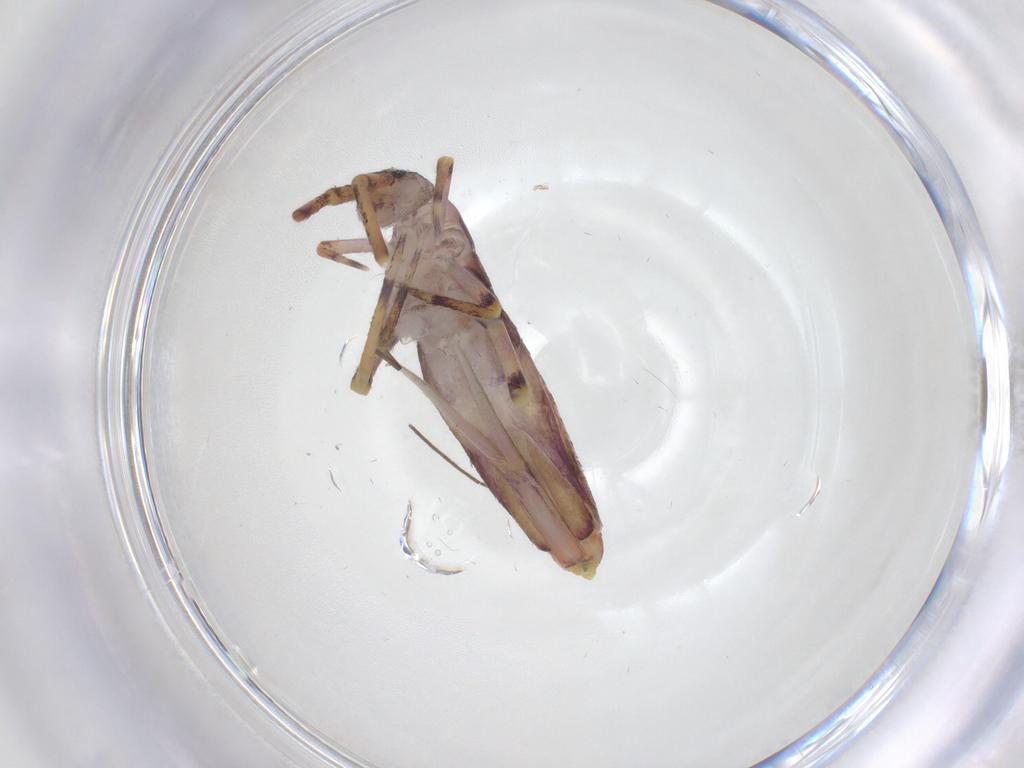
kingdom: Animalia
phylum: Arthropoda
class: Collembola
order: Entomobryomorpha
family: Entomobryidae
